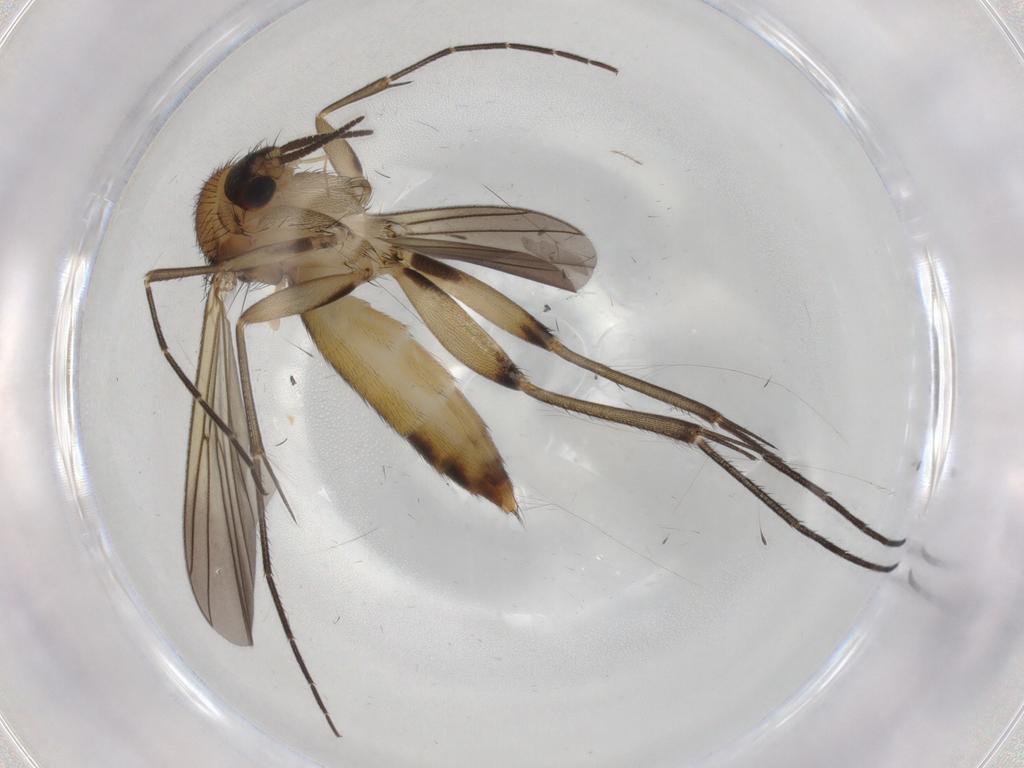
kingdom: Animalia
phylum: Arthropoda
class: Insecta
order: Diptera
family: Mycetophilidae
